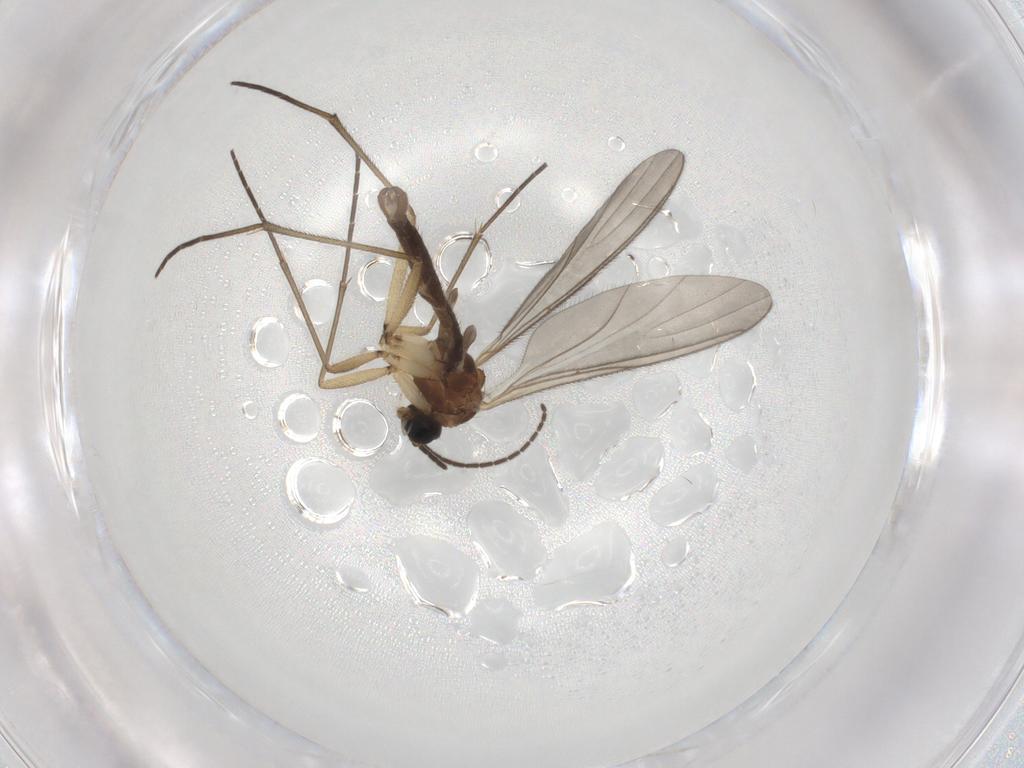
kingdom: Animalia
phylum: Arthropoda
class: Insecta
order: Diptera
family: Sciaridae
